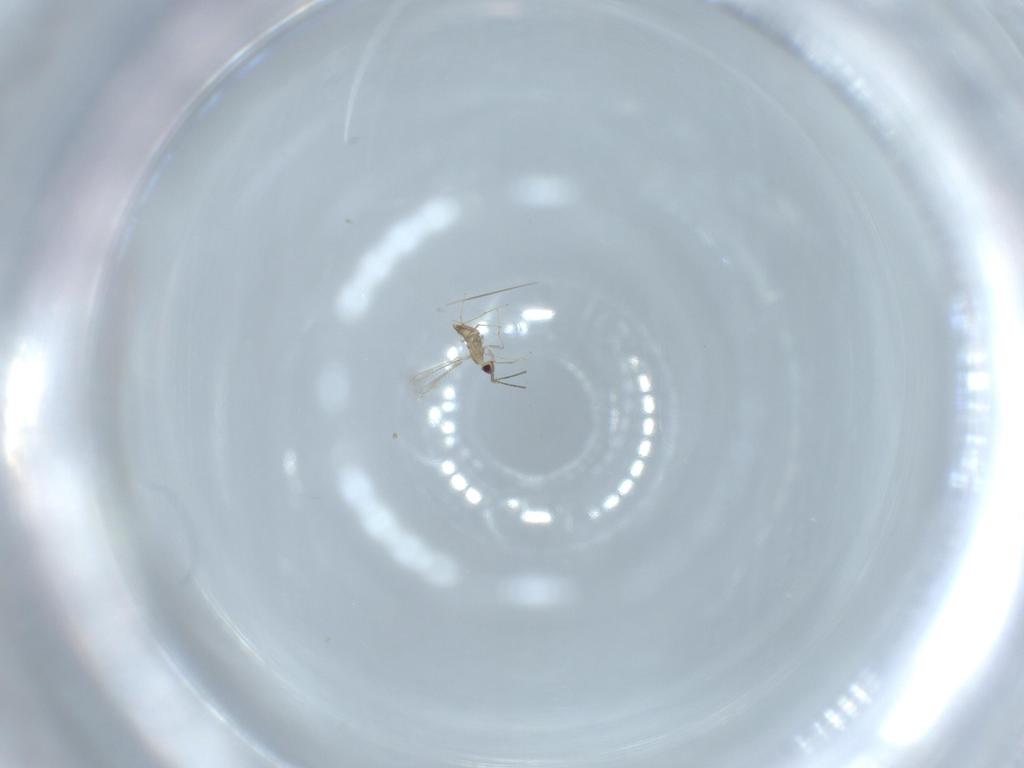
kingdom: Animalia
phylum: Arthropoda
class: Insecta
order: Hymenoptera
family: Mymaridae
